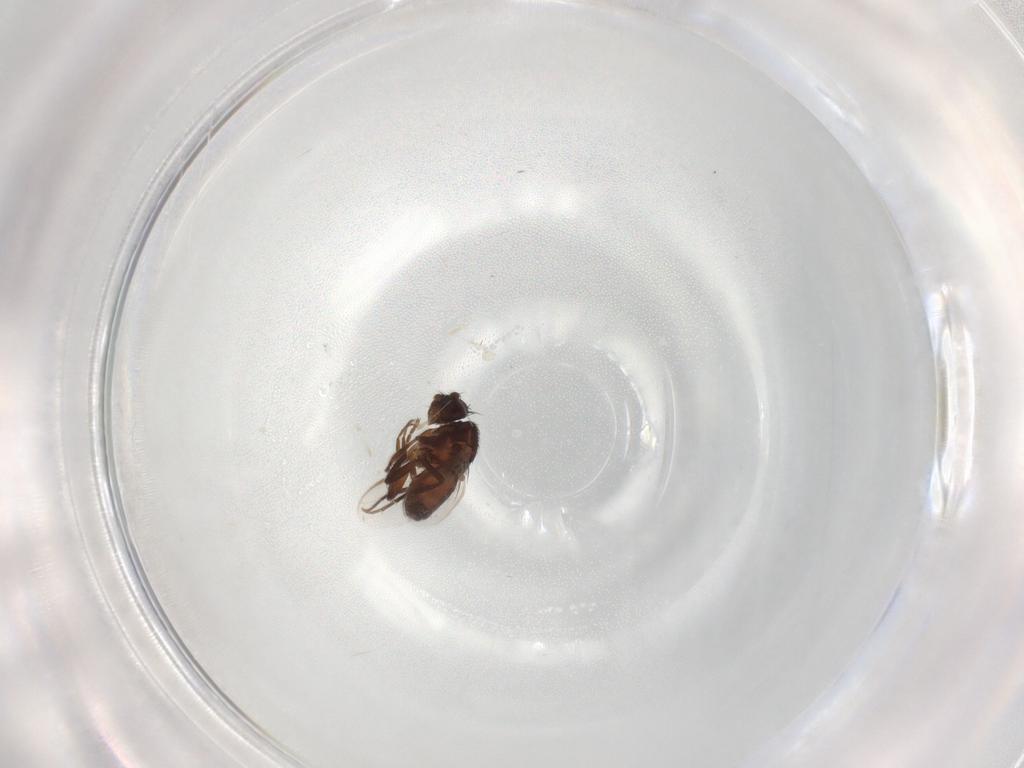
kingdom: Animalia
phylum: Arthropoda
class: Insecta
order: Diptera
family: Sphaeroceridae
